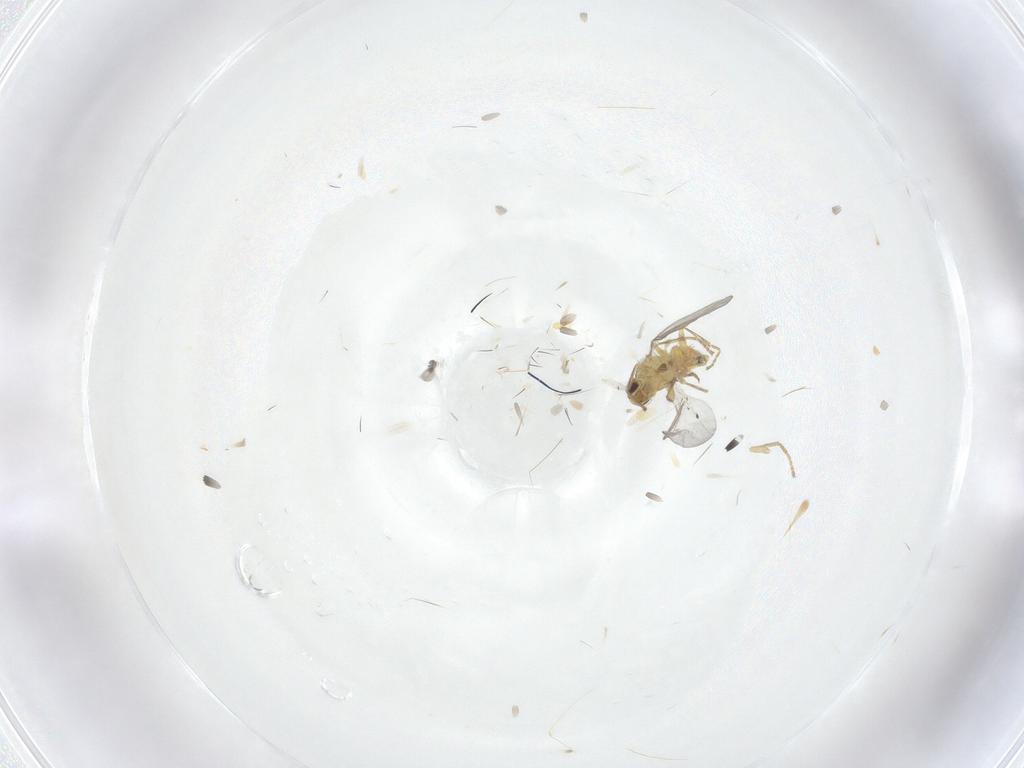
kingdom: Animalia
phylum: Arthropoda
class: Insecta
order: Diptera
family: Agromyzidae
